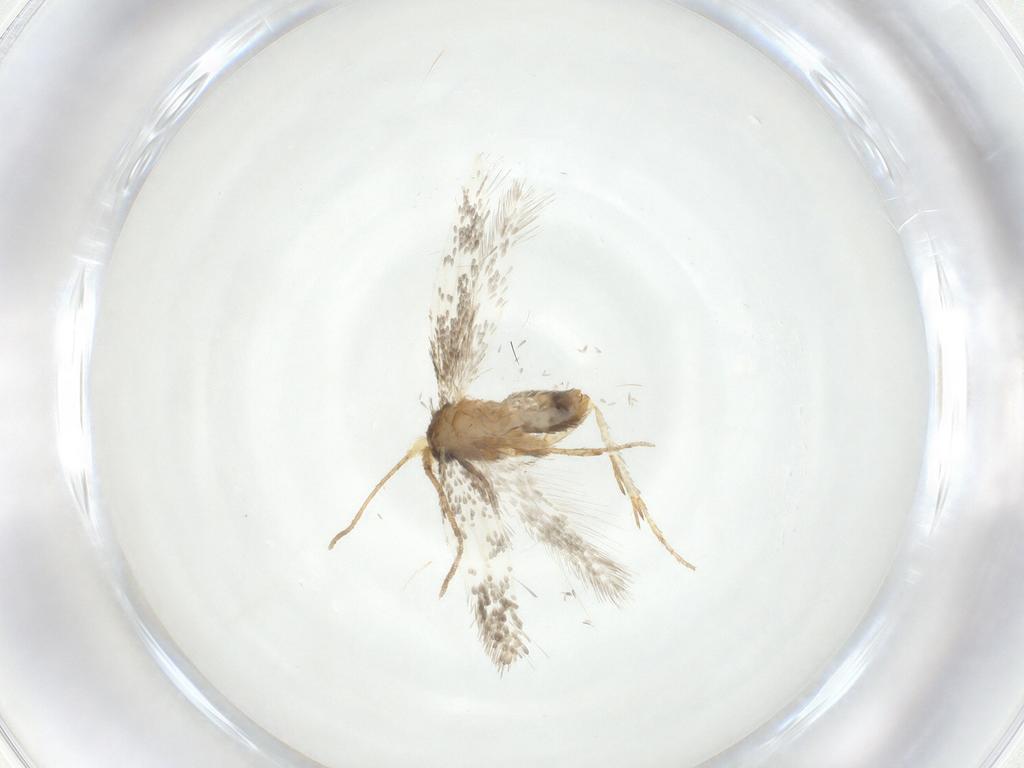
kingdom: Animalia
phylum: Arthropoda
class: Insecta
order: Lepidoptera
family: Nepticulidae
